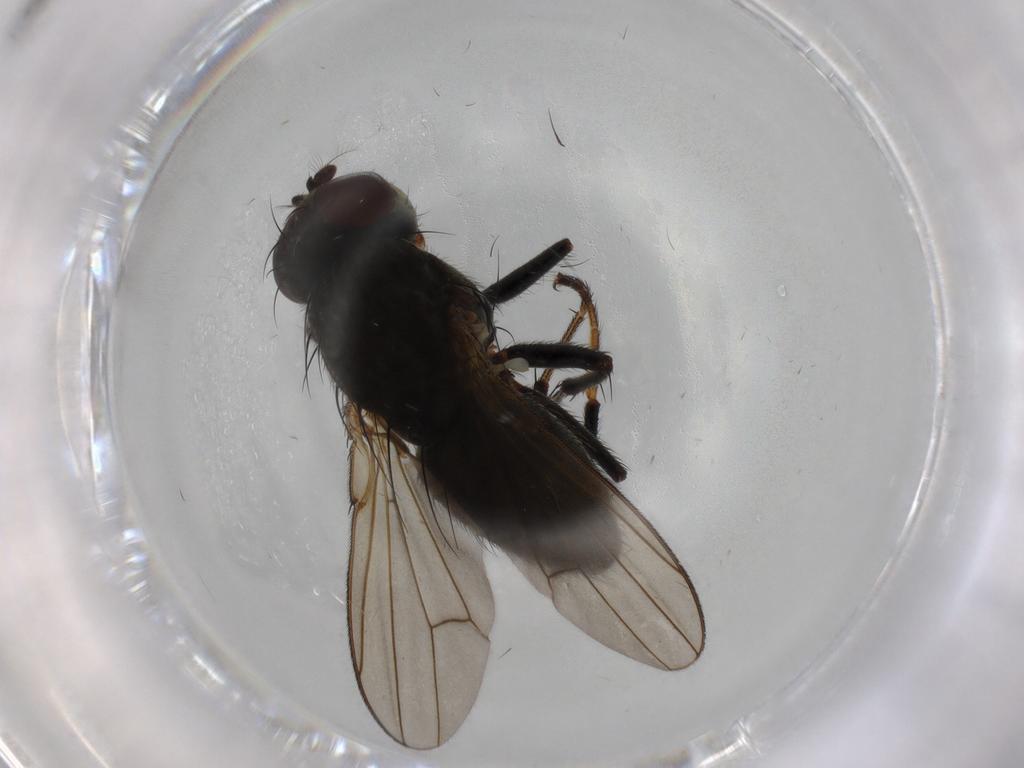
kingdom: Animalia
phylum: Arthropoda
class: Insecta
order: Diptera
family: Ephydridae
